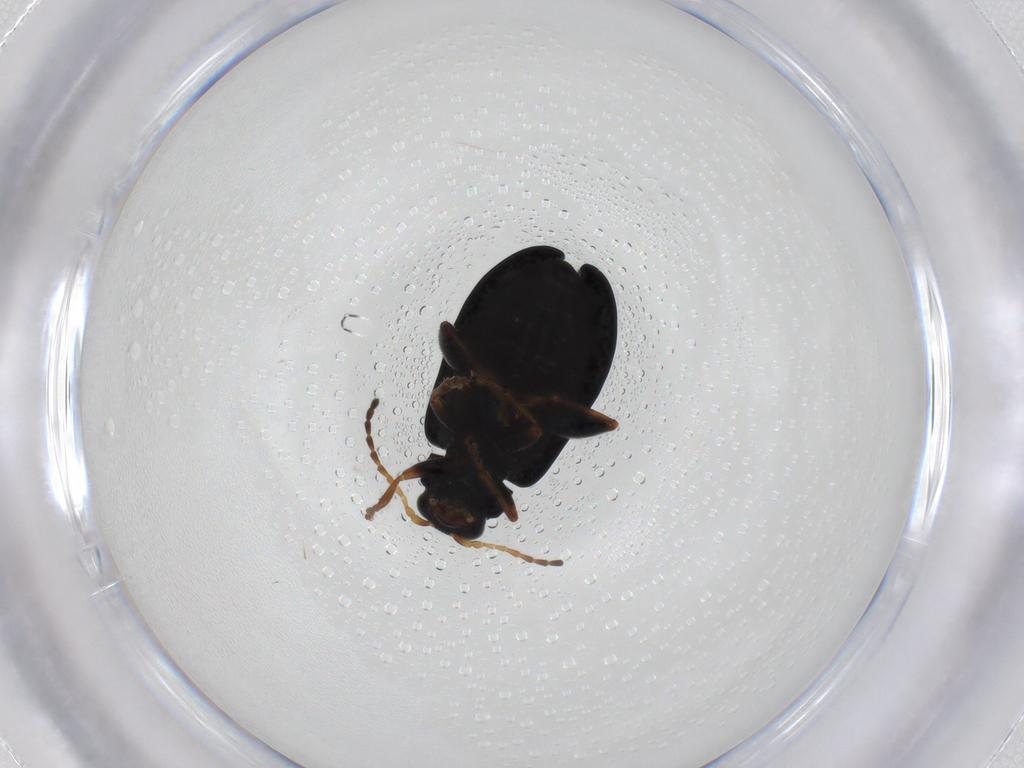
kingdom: Animalia
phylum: Arthropoda
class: Insecta
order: Coleoptera
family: Chrysomelidae
